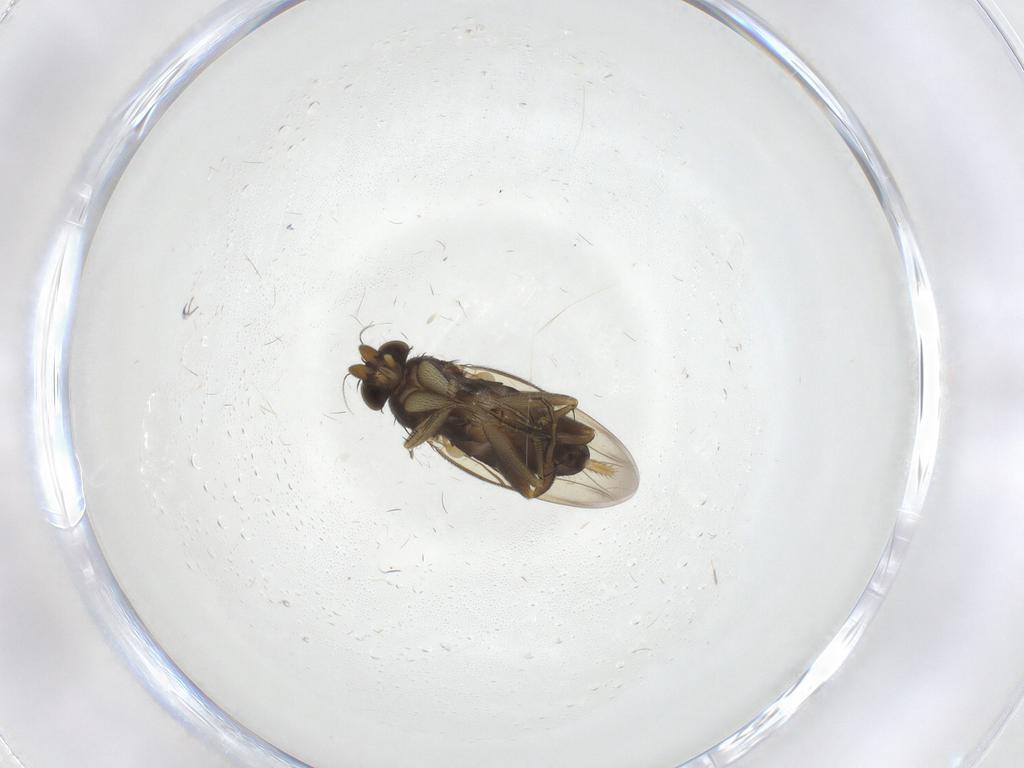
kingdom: Animalia
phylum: Arthropoda
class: Insecta
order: Diptera
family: Phoridae
